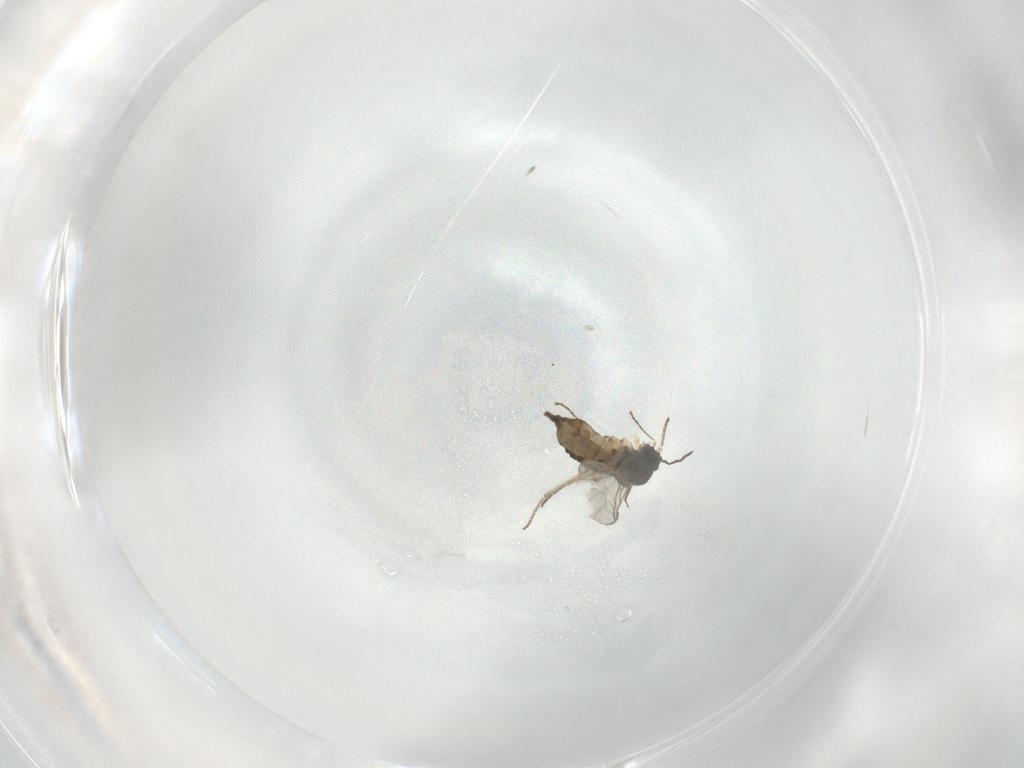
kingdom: Animalia
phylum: Arthropoda
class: Insecta
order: Diptera
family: Sciaridae
